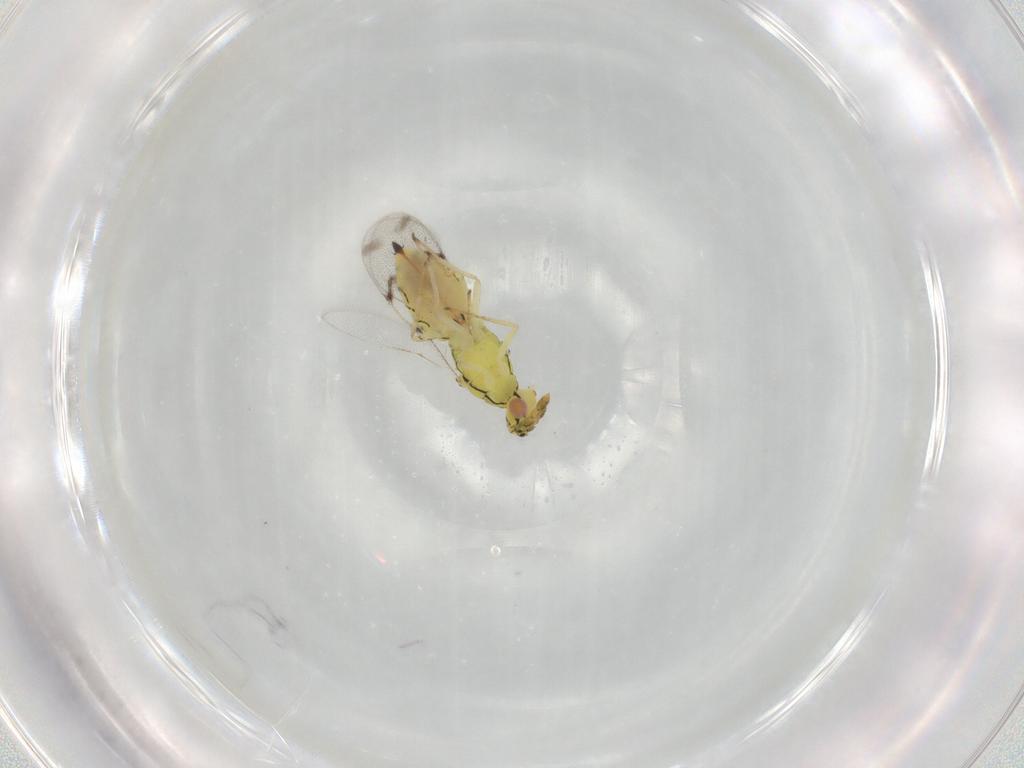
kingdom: Animalia
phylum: Arthropoda
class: Insecta
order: Hymenoptera
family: Eulophidae
